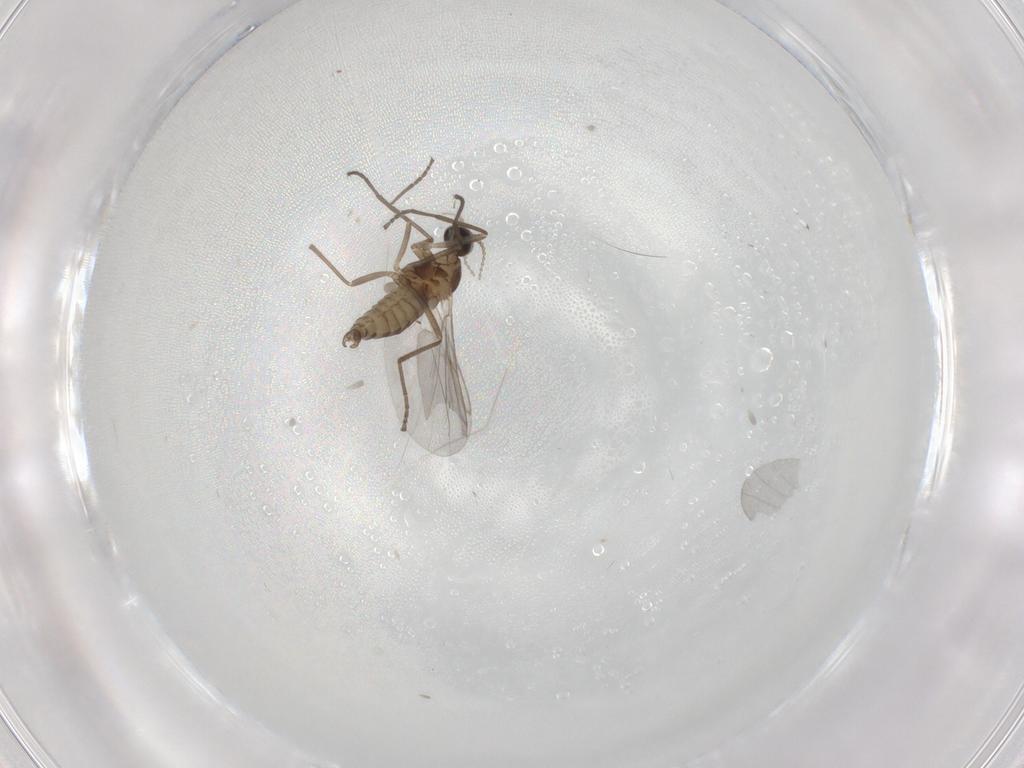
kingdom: Animalia
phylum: Arthropoda
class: Insecta
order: Diptera
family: Cecidomyiidae
